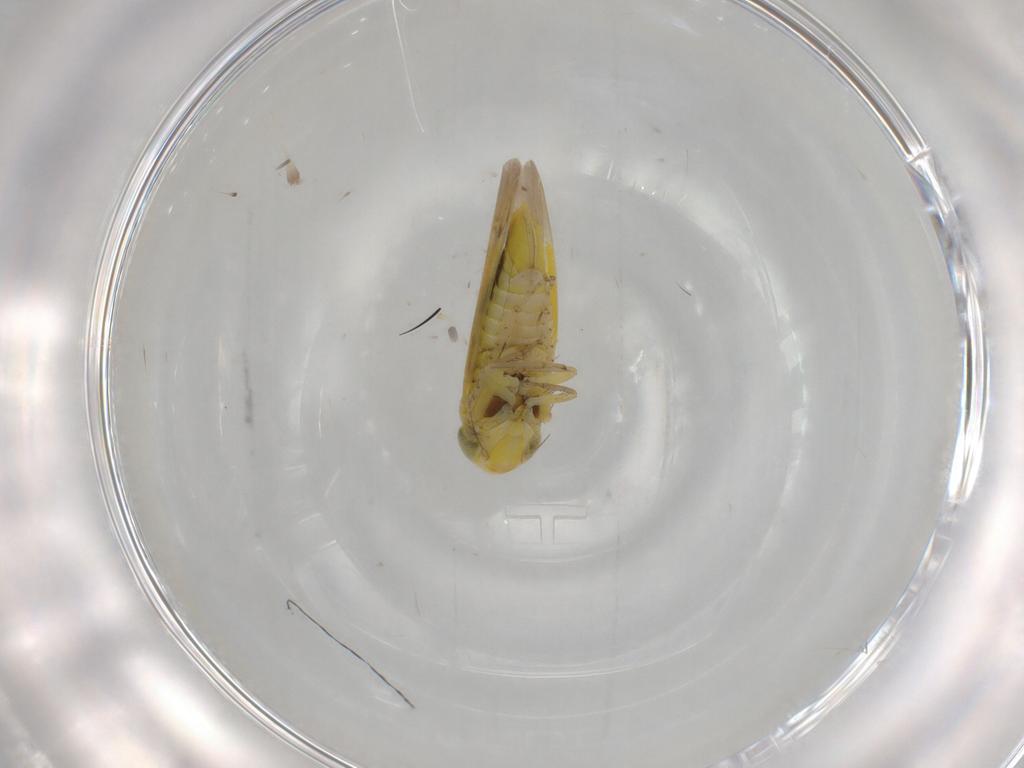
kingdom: Animalia
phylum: Arthropoda
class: Insecta
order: Hemiptera
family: Cicadellidae
